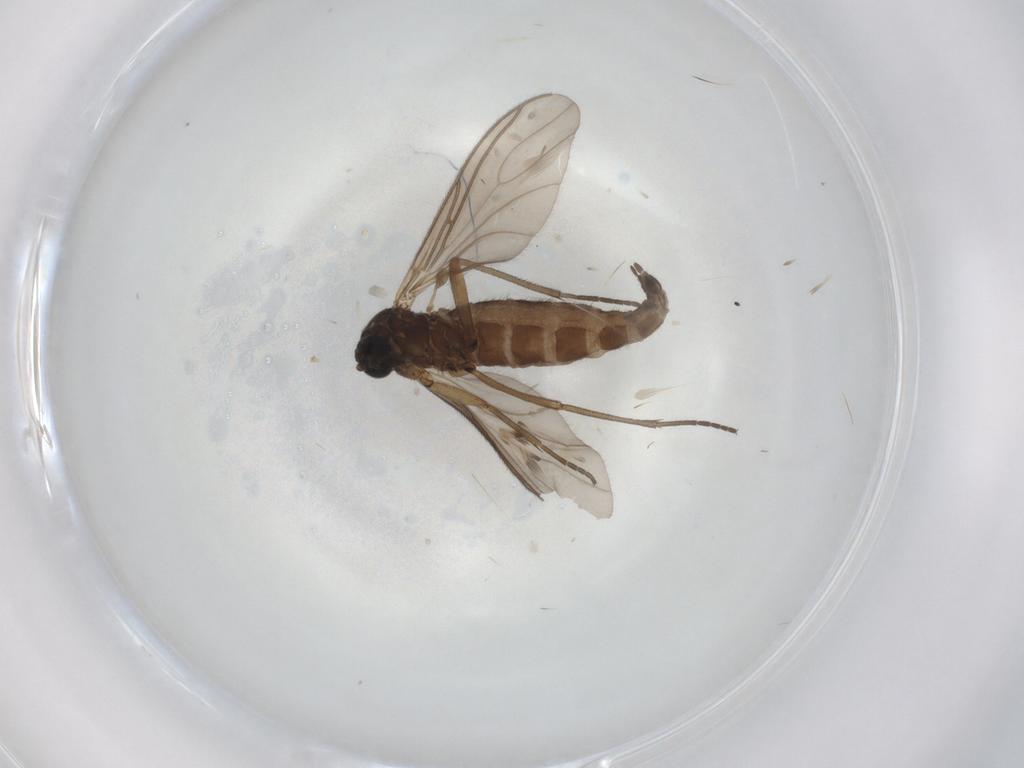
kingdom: Animalia
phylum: Arthropoda
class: Insecta
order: Diptera
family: Sciaridae
